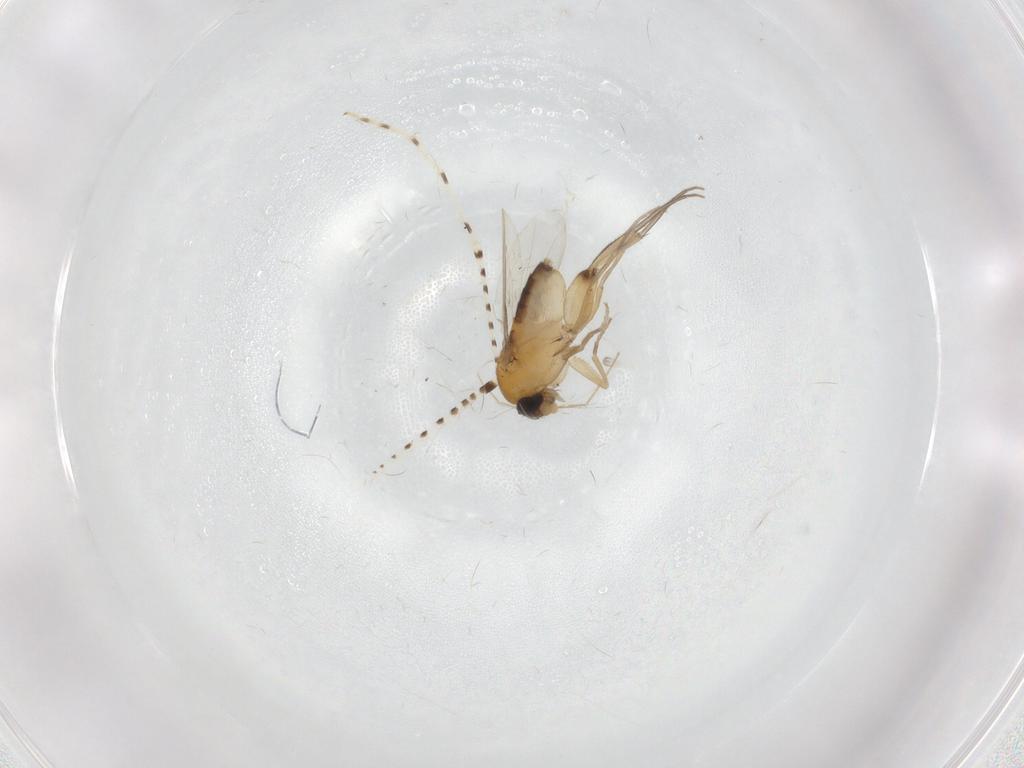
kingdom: Animalia
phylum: Arthropoda
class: Insecta
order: Diptera
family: Chaoboridae
